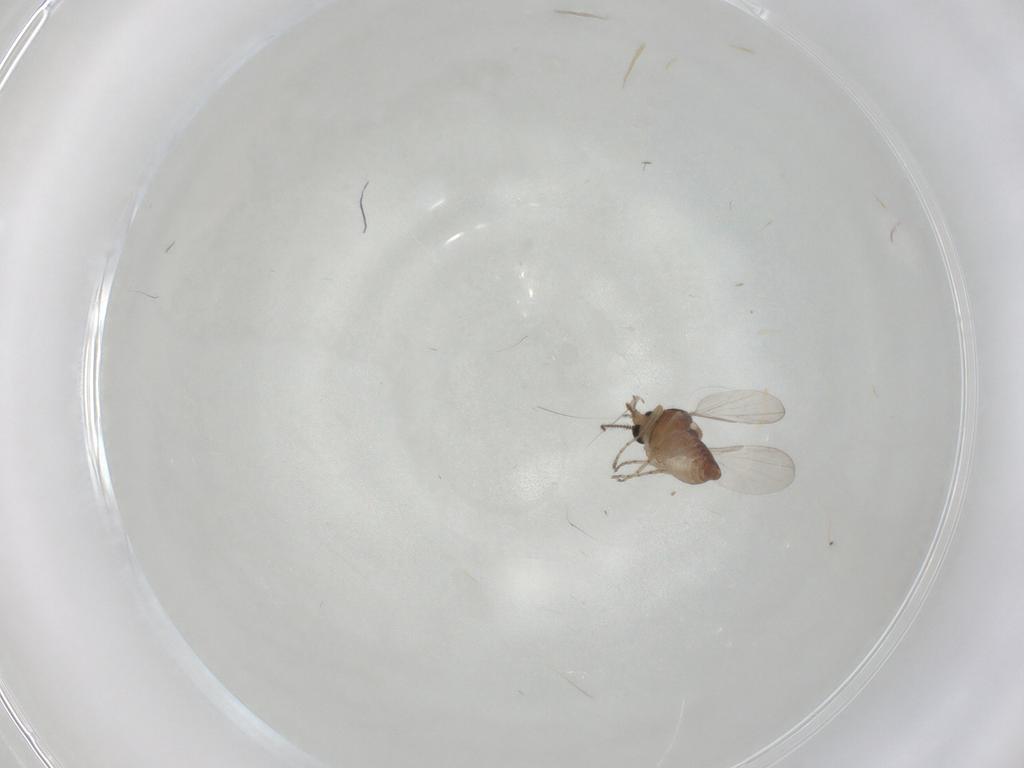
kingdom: Animalia
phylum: Arthropoda
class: Insecta
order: Diptera
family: Ceratopogonidae
